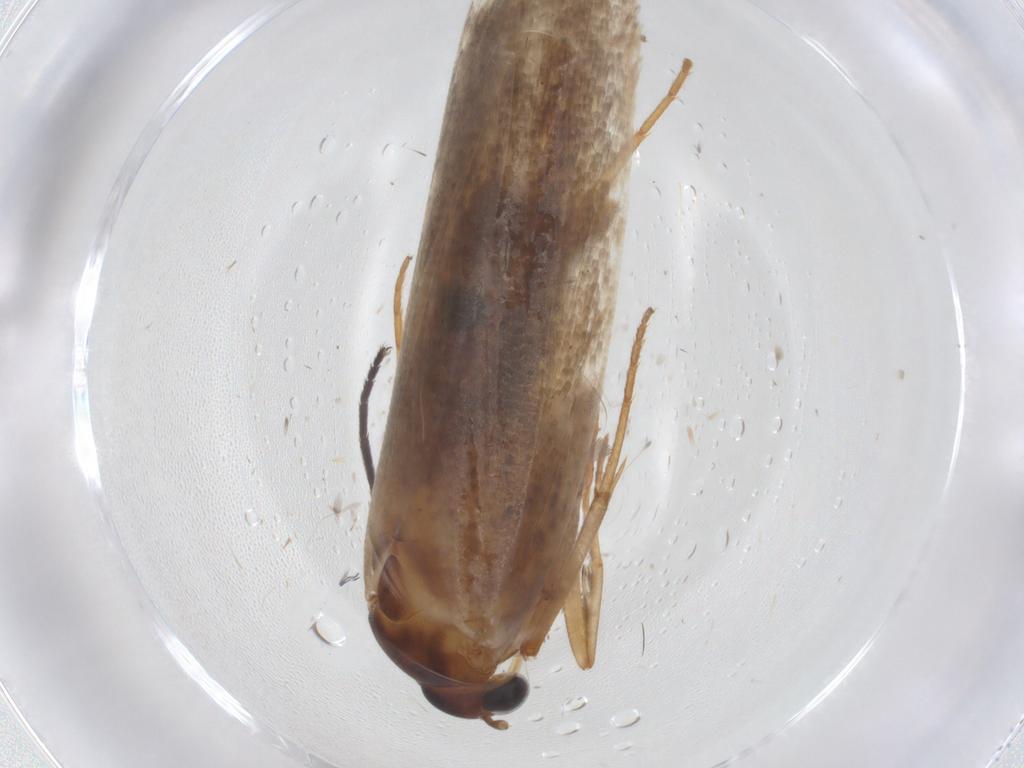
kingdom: Animalia
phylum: Arthropoda
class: Insecta
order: Lepidoptera
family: Cosmopterigidae
